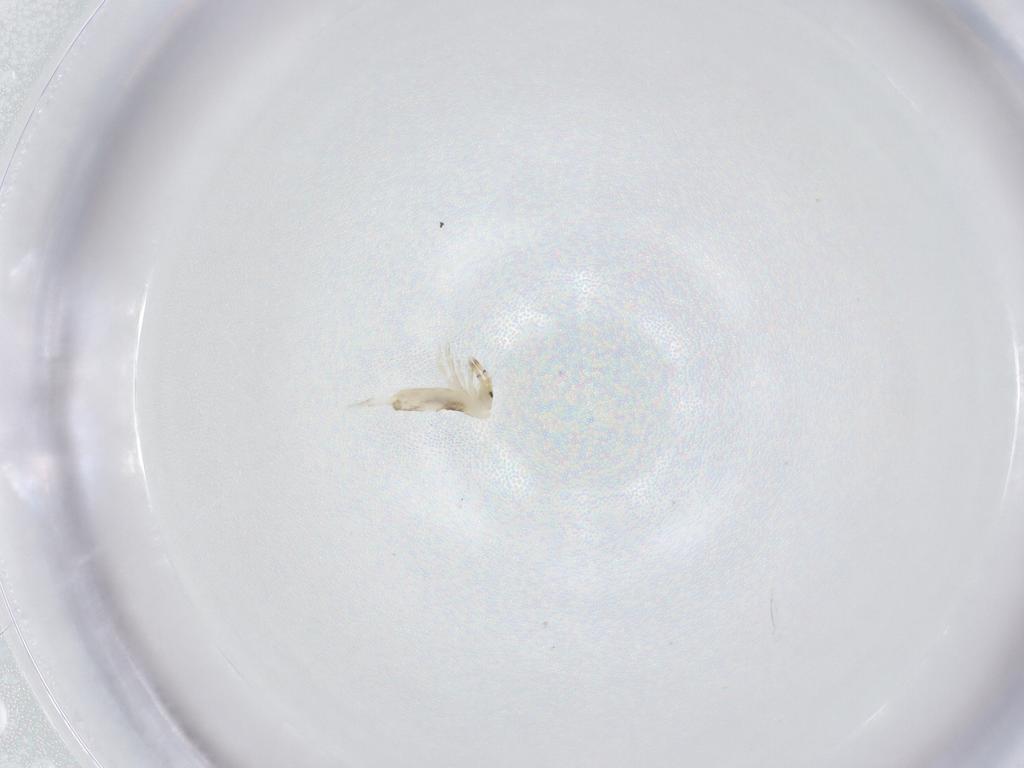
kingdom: Animalia
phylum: Arthropoda
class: Collembola
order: Entomobryomorpha
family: Entomobryidae
